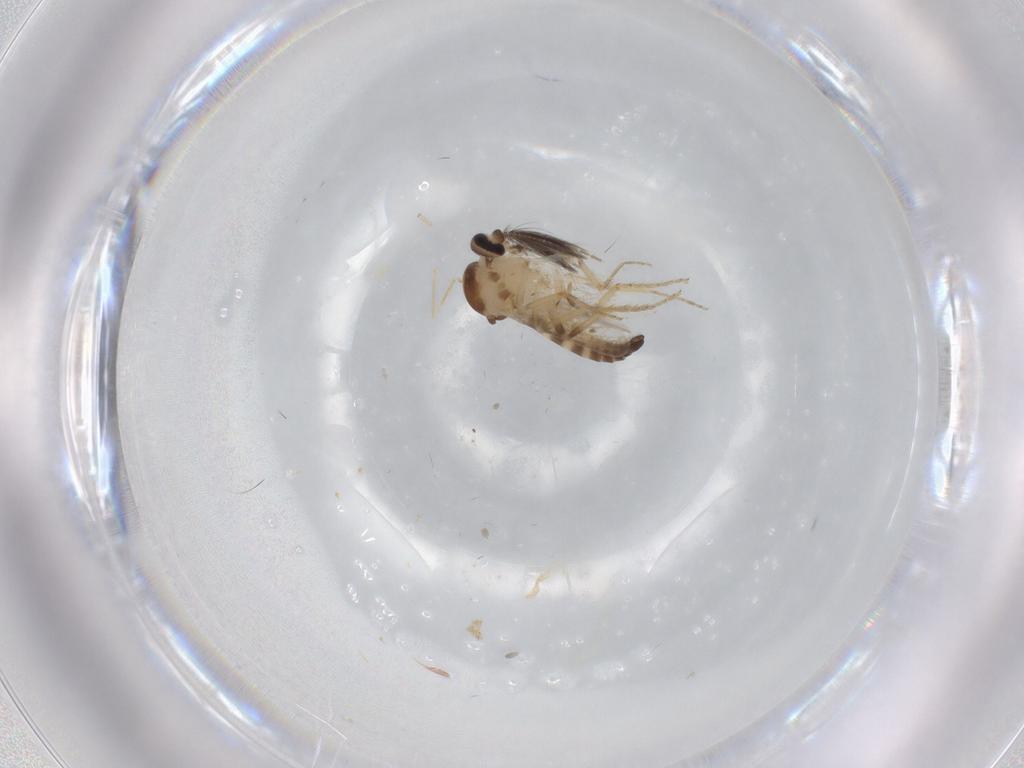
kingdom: Animalia
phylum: Arthropoda
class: Insecta
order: Diptera
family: Ceratopogonidae
